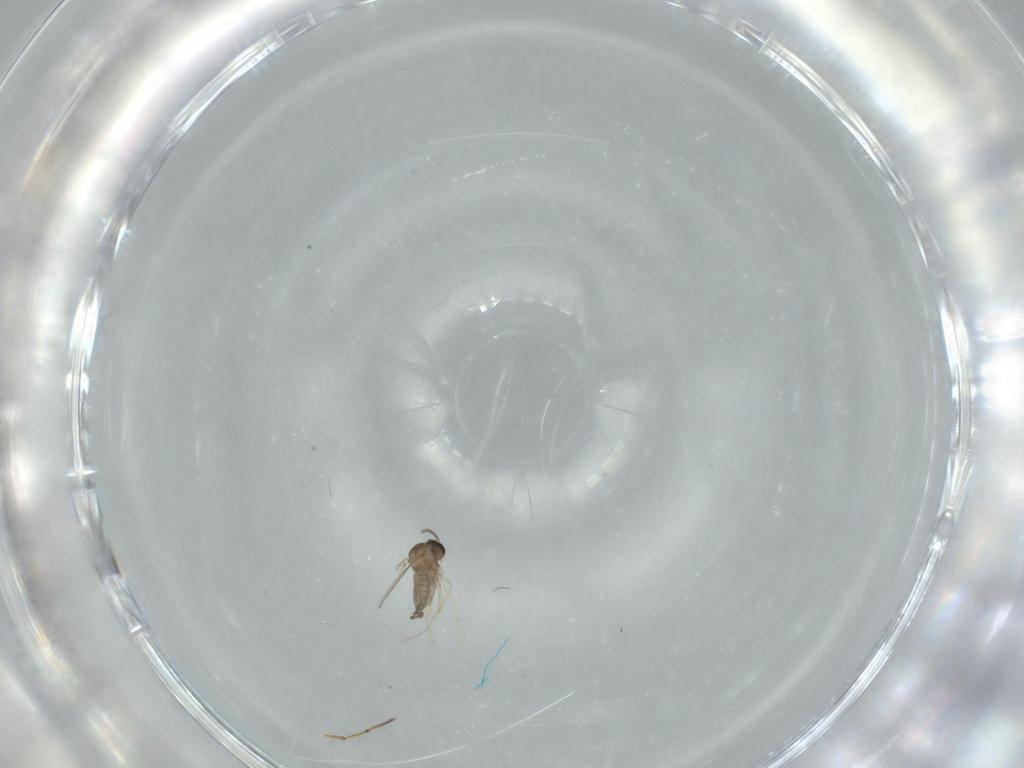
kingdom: Animalia
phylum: Arthropoda
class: Insecta
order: Diptera
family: Cecidomyiidae
